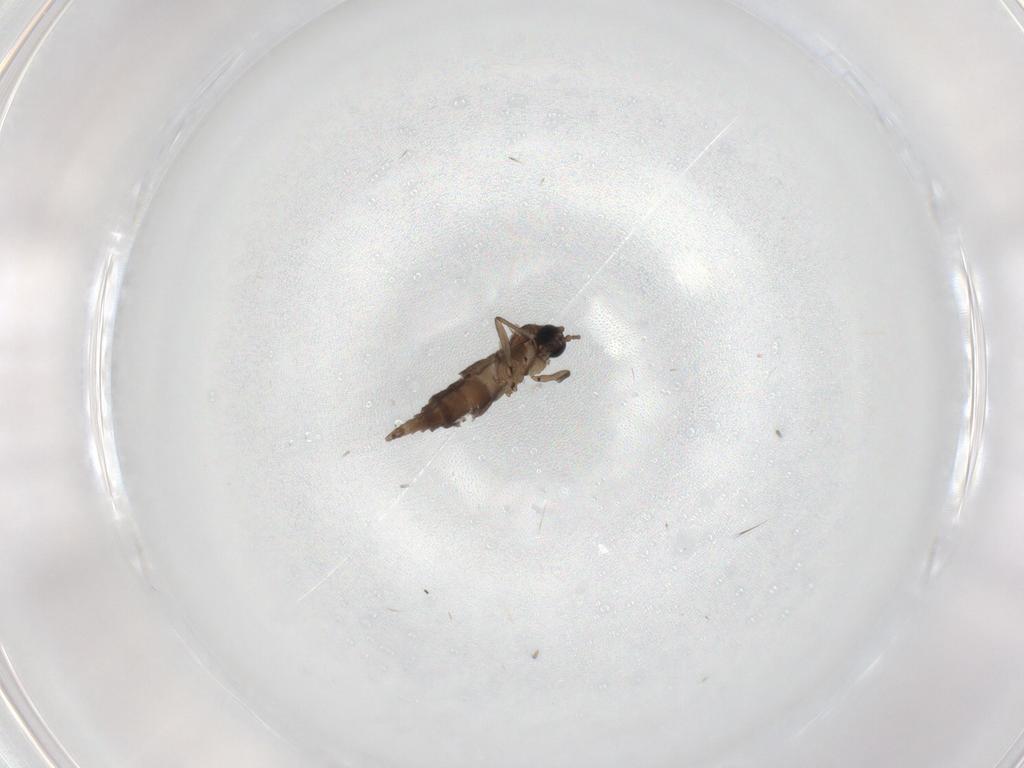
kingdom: Animalia
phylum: Arthropoda
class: Insecta
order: Diptera
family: Sciaridae
